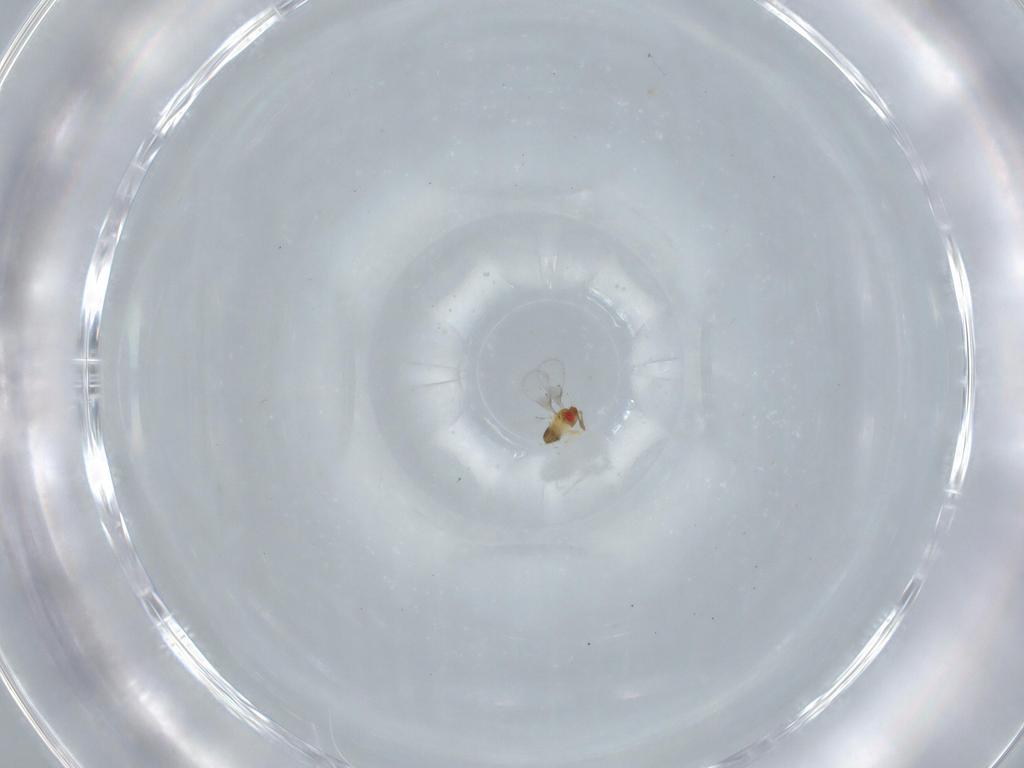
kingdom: Animalia
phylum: Arthropoda
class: Insecta
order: Hymenoptera
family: Trichogrammatidae
